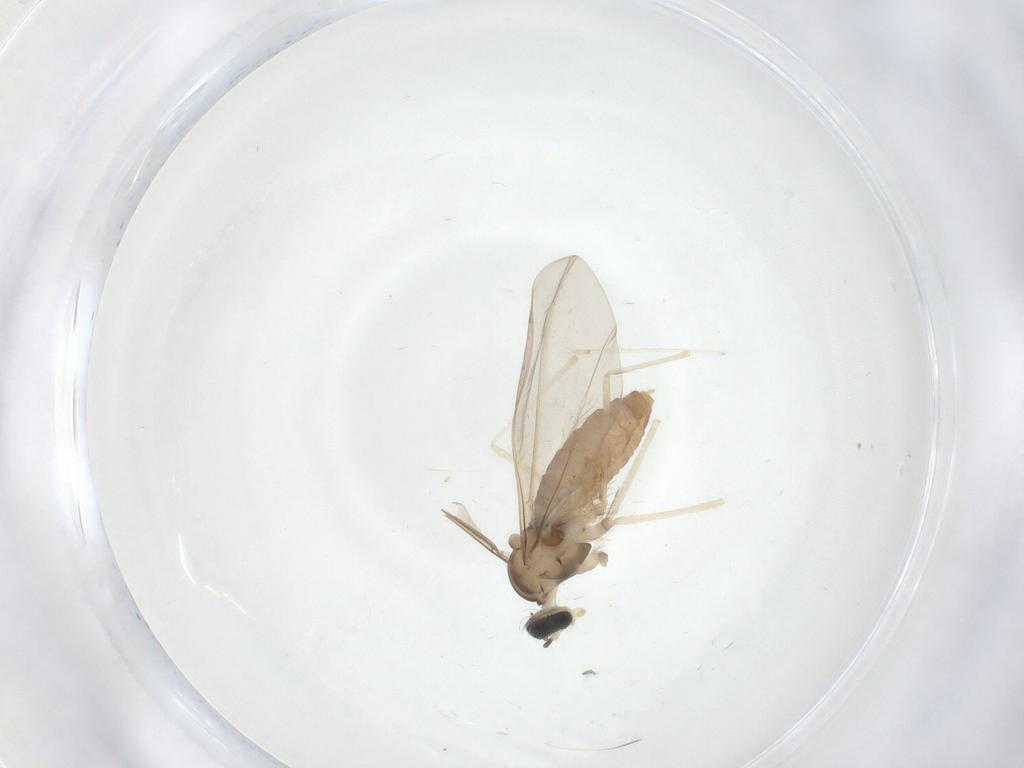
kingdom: Animalia
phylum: Arthropoda
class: Insecta
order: Diptera
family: Cecidomyiidae
